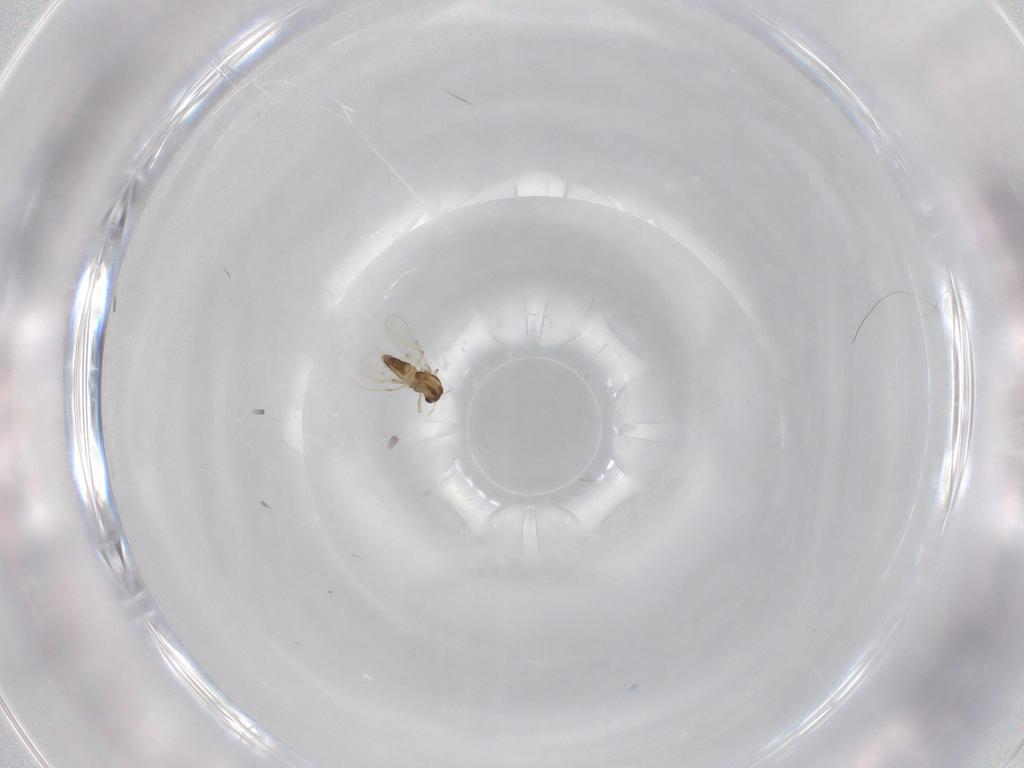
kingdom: Animalia
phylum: Arthropoda
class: Insecta
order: Diptera
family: Chironomidae
